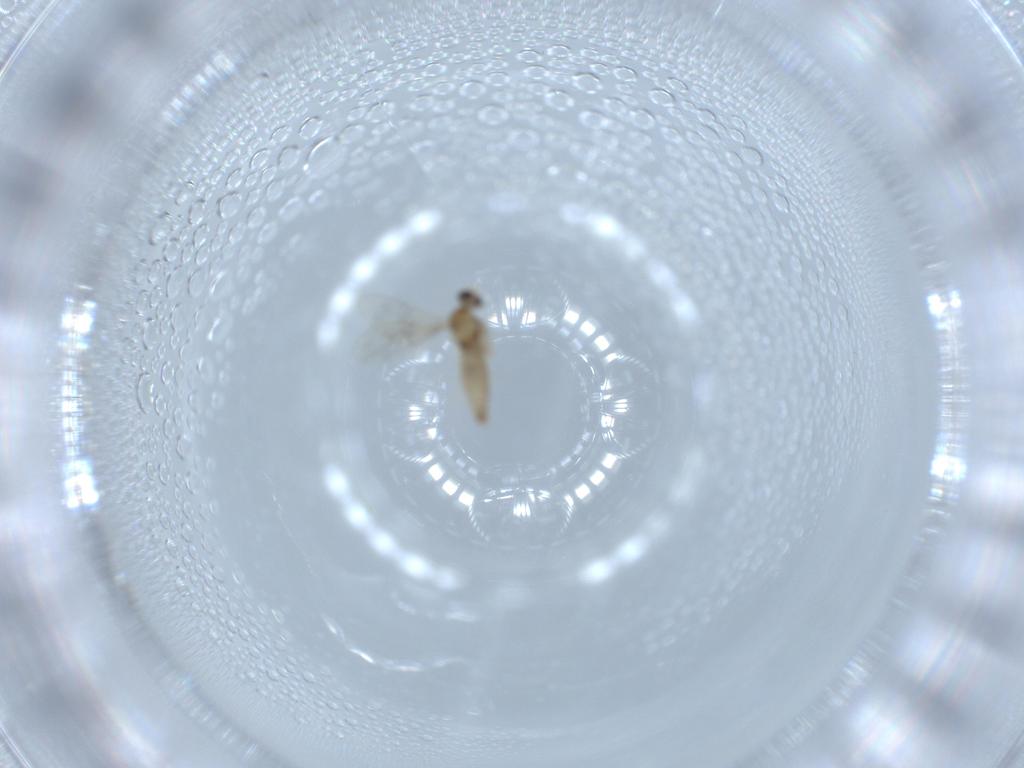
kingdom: Animalia
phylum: Arthropoda
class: Insecta
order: Diptera
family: Cecidomyiidae
